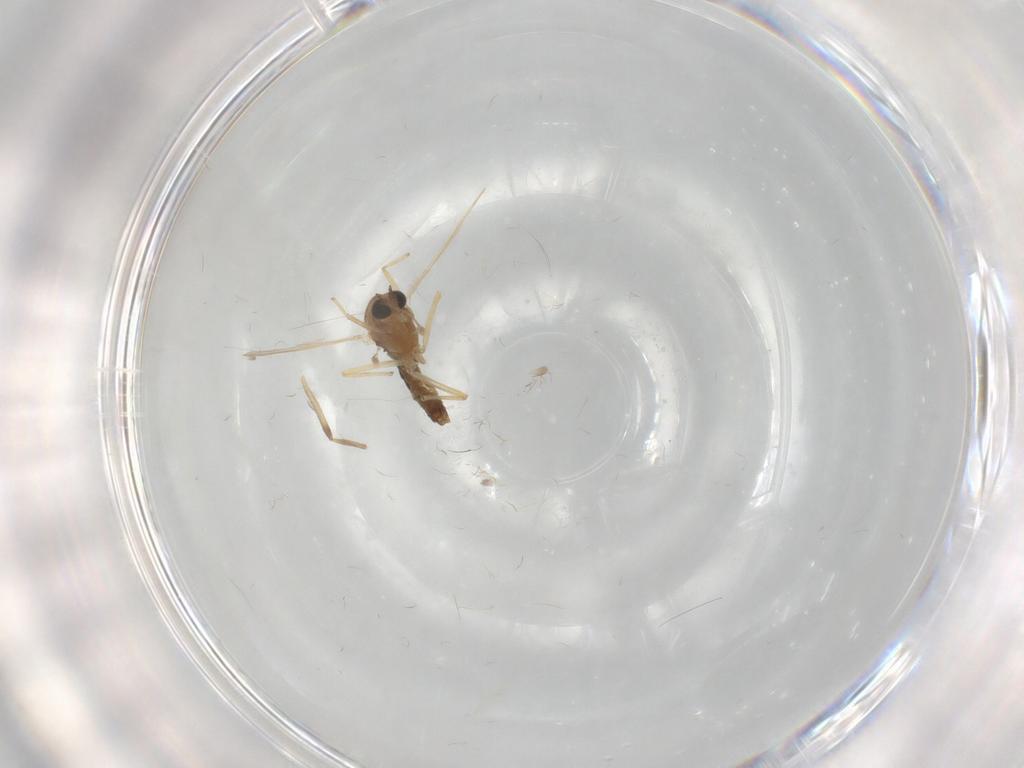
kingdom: Animalia
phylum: Arthropoda
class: Insecta
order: Diptera
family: Chironomidae
